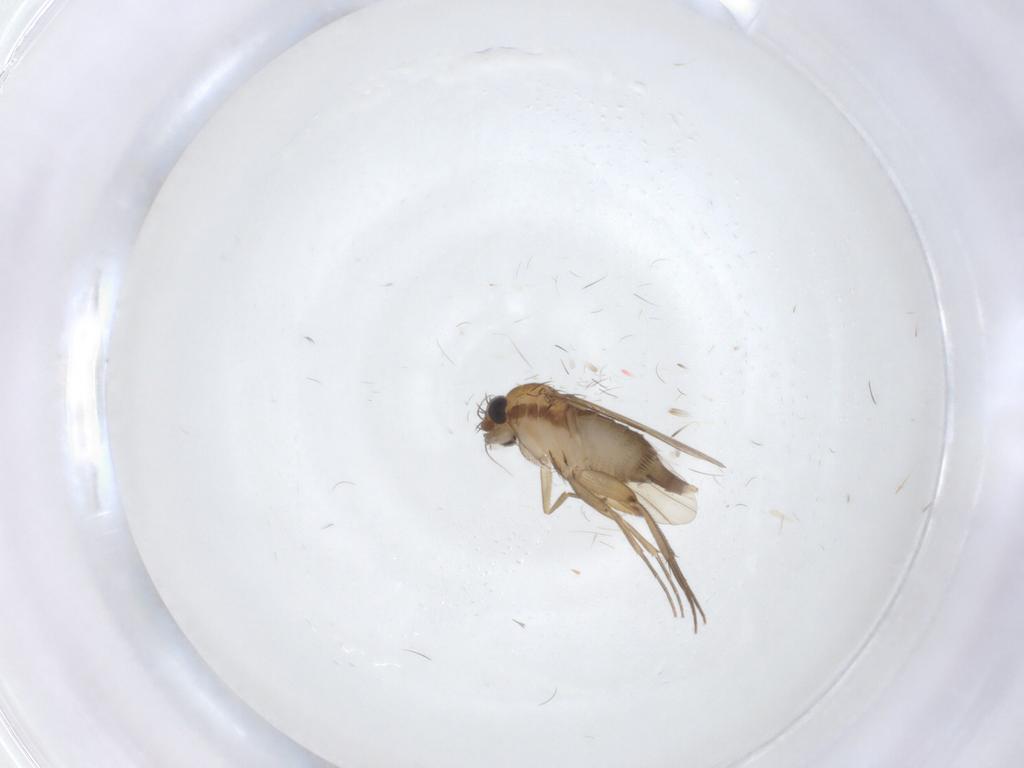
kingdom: Animalia
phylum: Arthropoda
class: Insecta
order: Diptera
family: Phoridae
